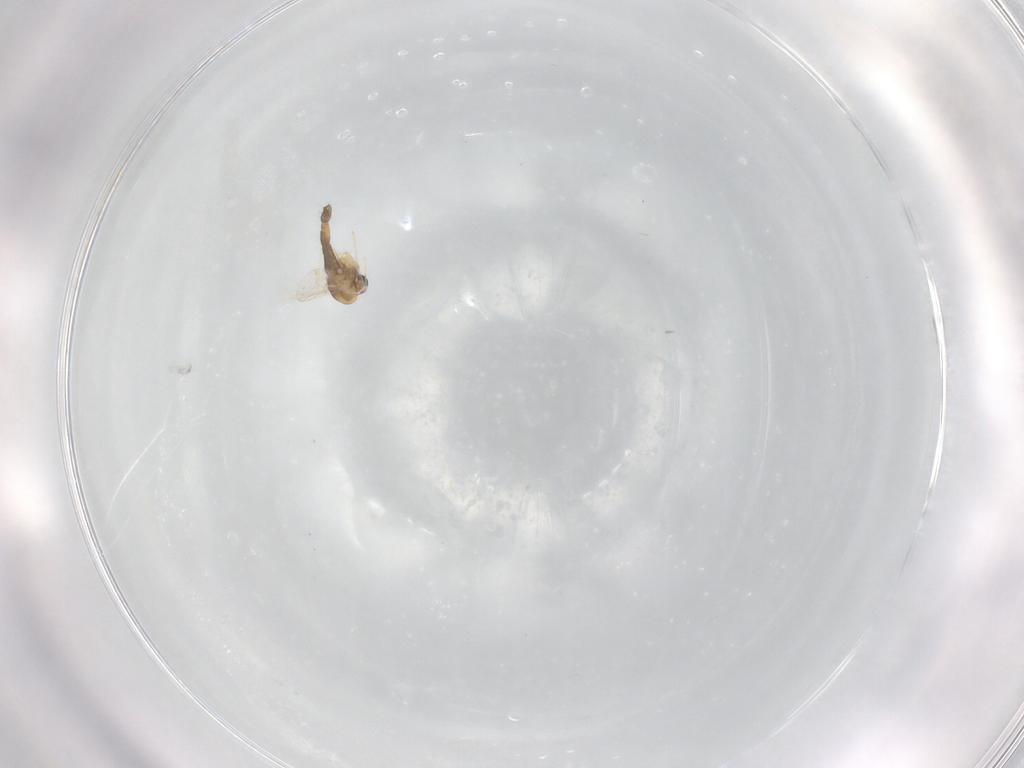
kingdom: Animalia
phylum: Arthropoda
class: Insecta
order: Diptera
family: Chironomidae
